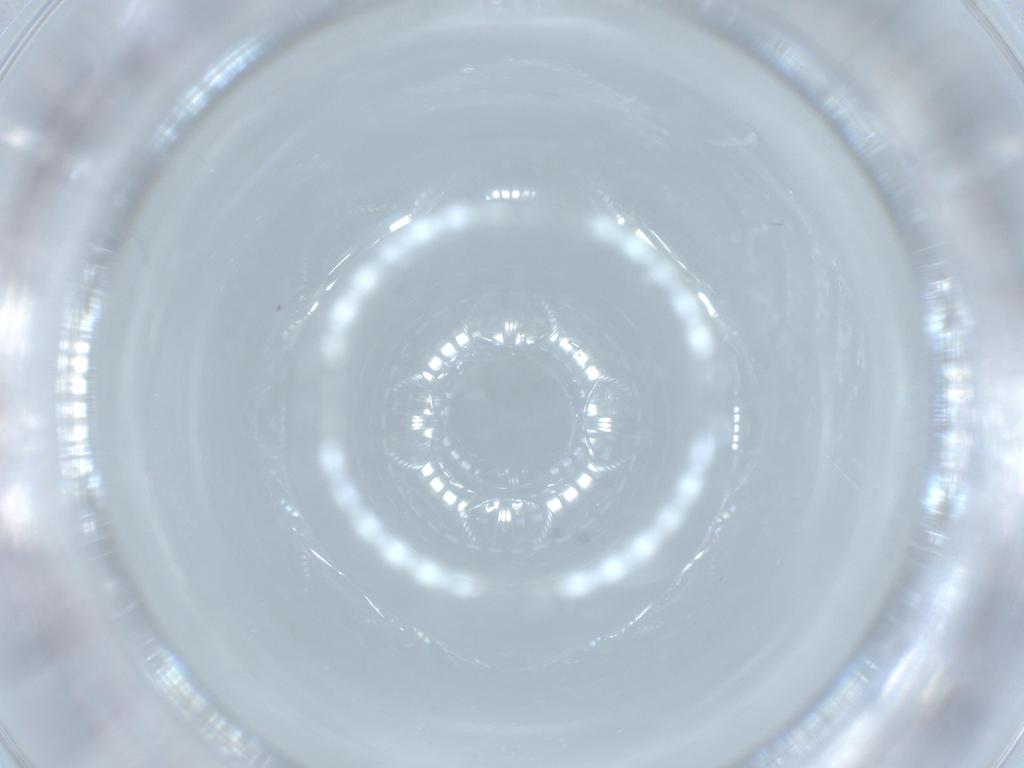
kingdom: Animalia
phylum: Arthropoda
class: Insecta
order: Diptera
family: Psychodidae
